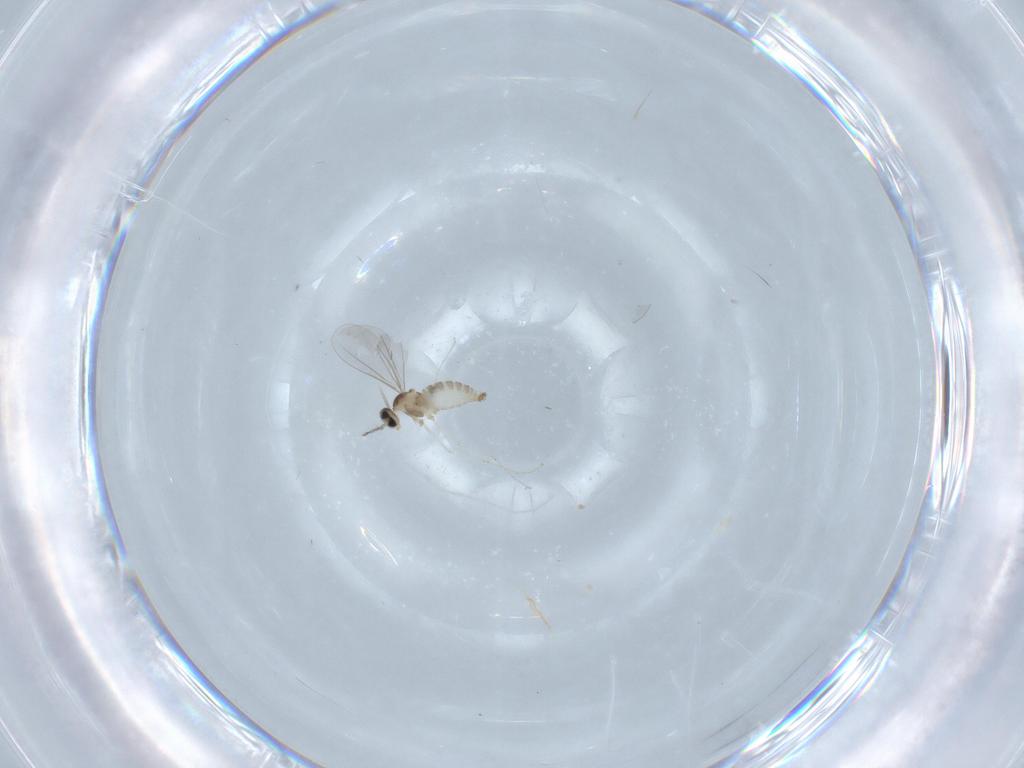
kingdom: Animalia
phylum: Arthropoda
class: Insecta
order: Diptera
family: Cecidomyiidae
